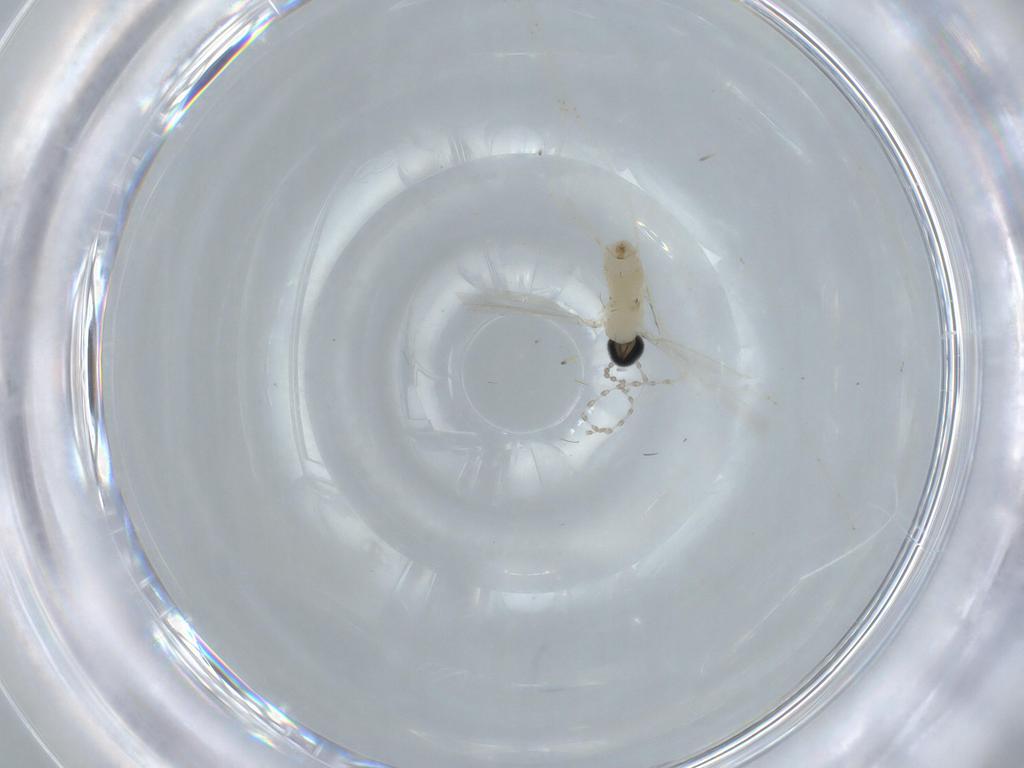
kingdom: Animalia
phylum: Arthropoda
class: Insecta
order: Diptera
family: Cecidomyiidae
